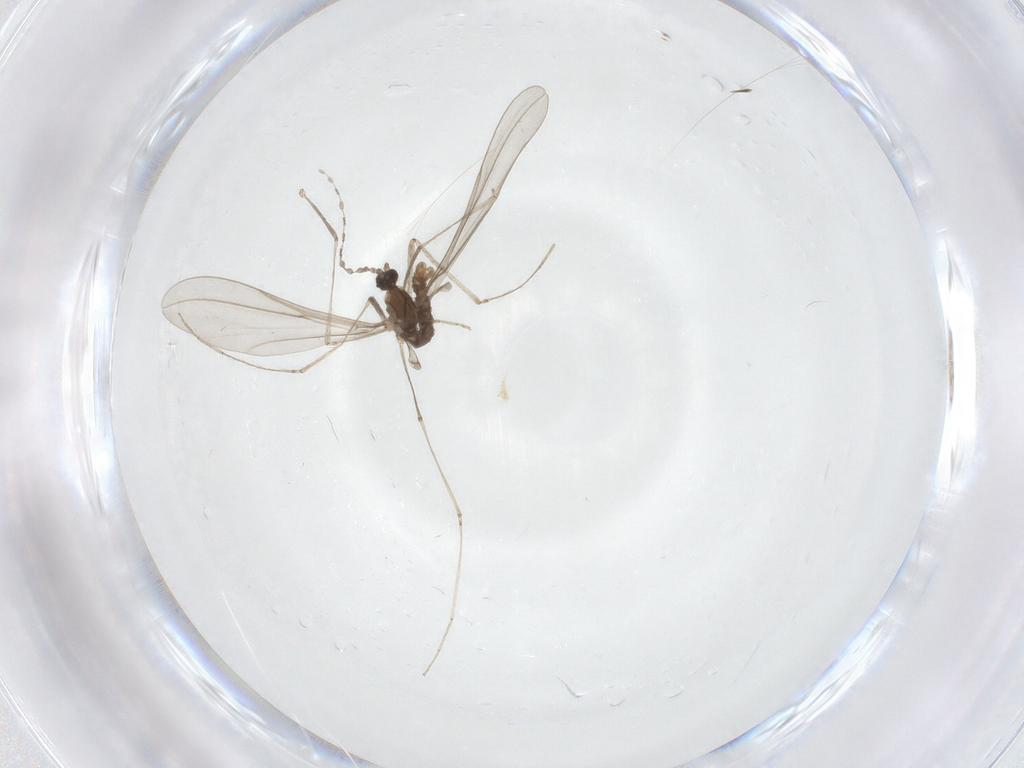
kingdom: Animalia
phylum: Arthropoda
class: Insecta
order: Diptera
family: Cecidomyiidae
